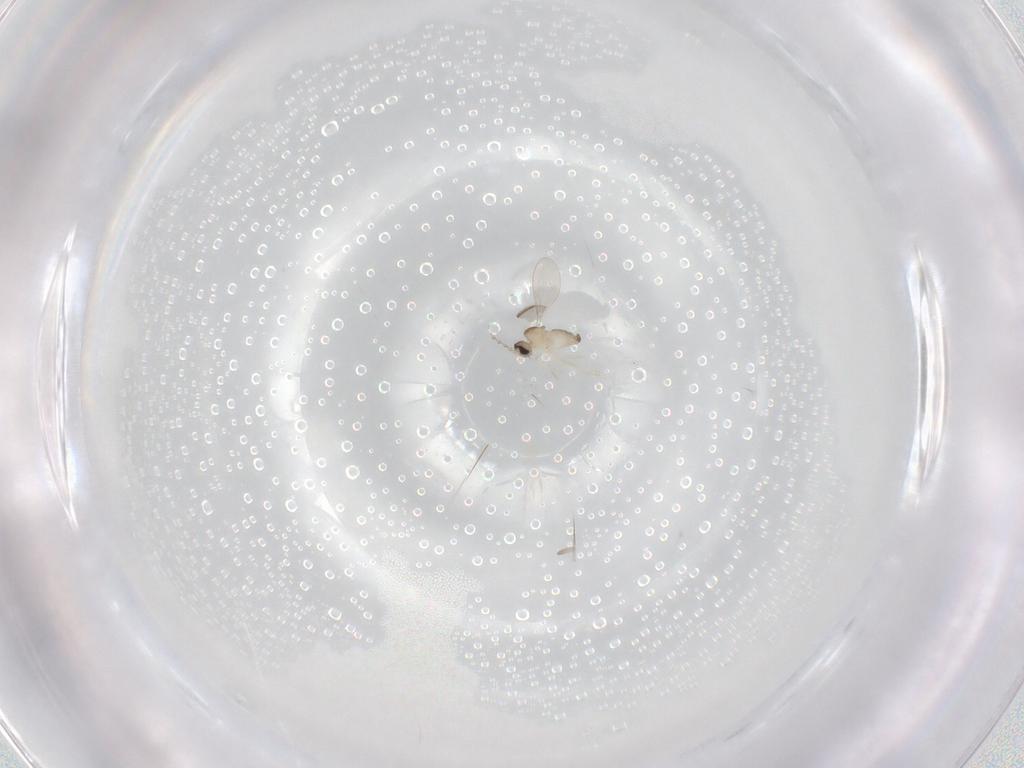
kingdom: Animalia
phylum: Arthropoda
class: Insecta
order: Diptera
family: Cecidomyiidae
